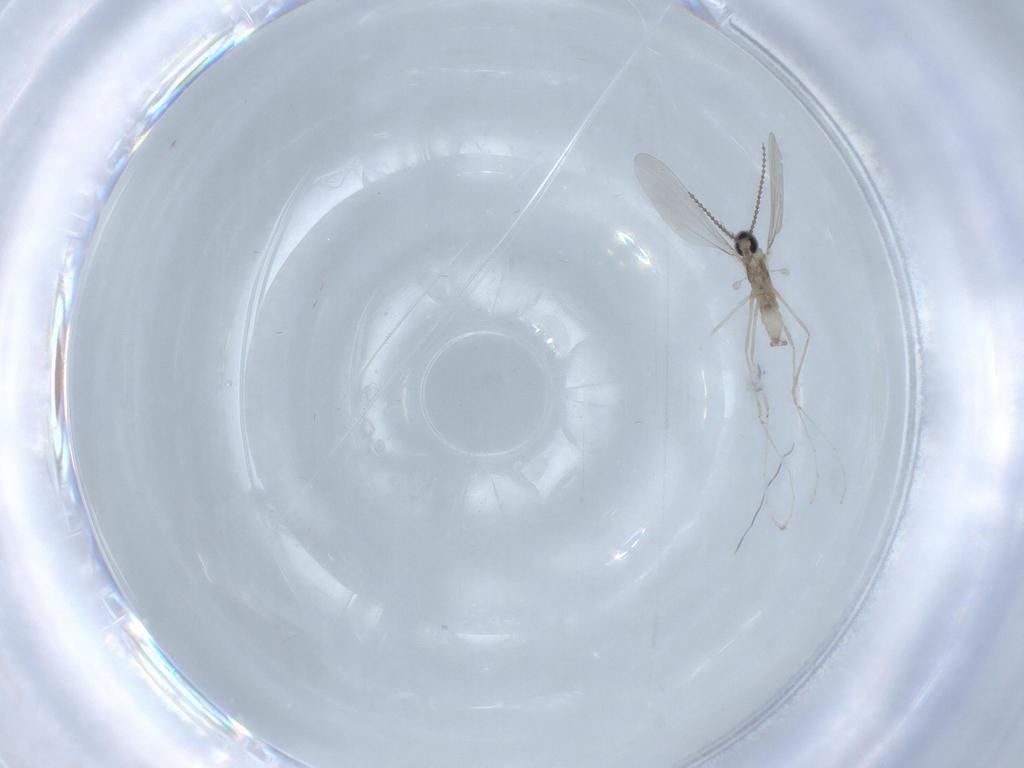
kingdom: Animalia
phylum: Arthropoda
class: Insecta
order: Diptera
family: Cecidomyiidae
